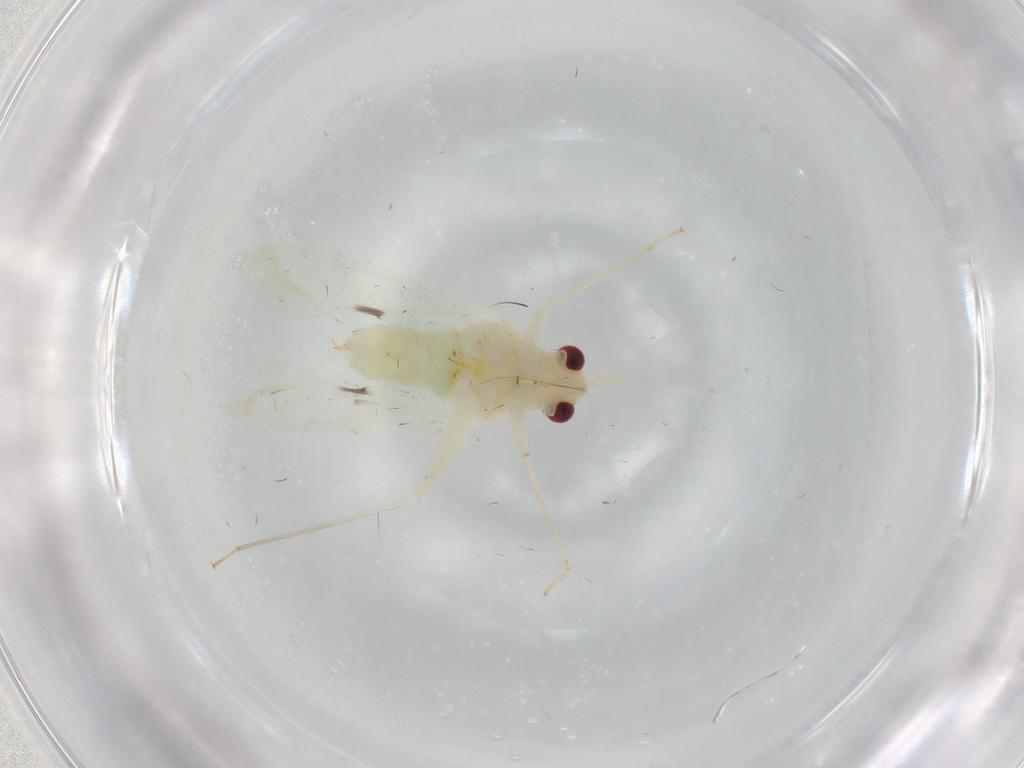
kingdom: Animalia
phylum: Arthropoda
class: Insecta
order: Hemiptera
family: Miridae
